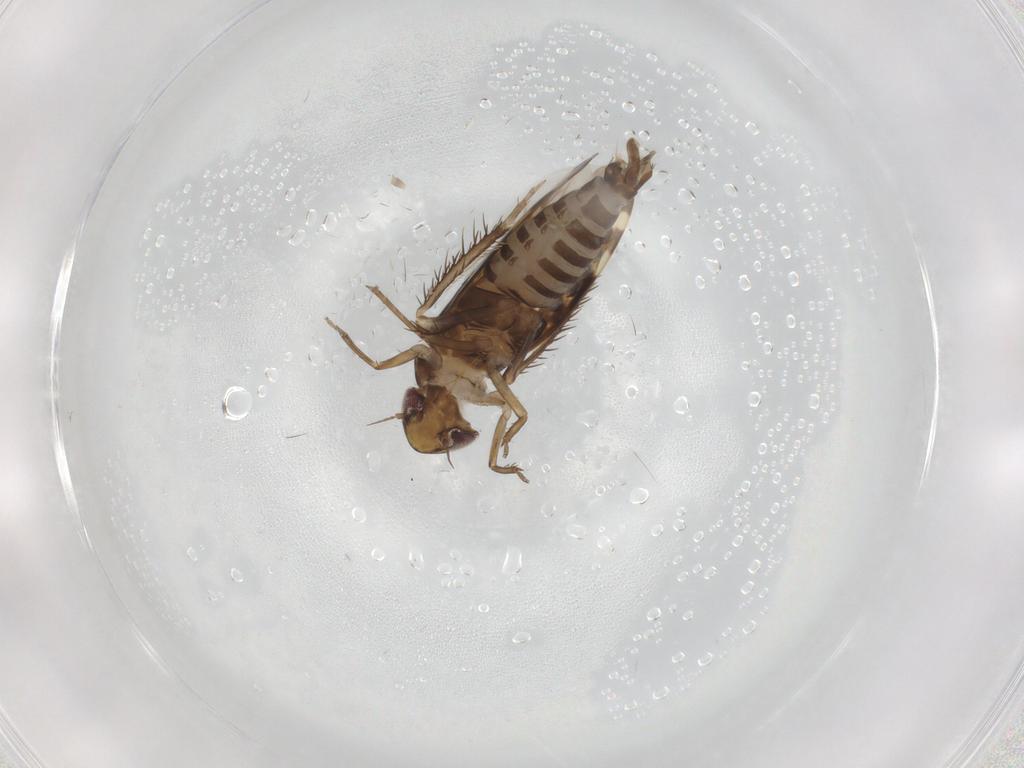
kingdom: Animalia
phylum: Arthropoda
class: Insecta
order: Hemiptera
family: Cicadellidae
